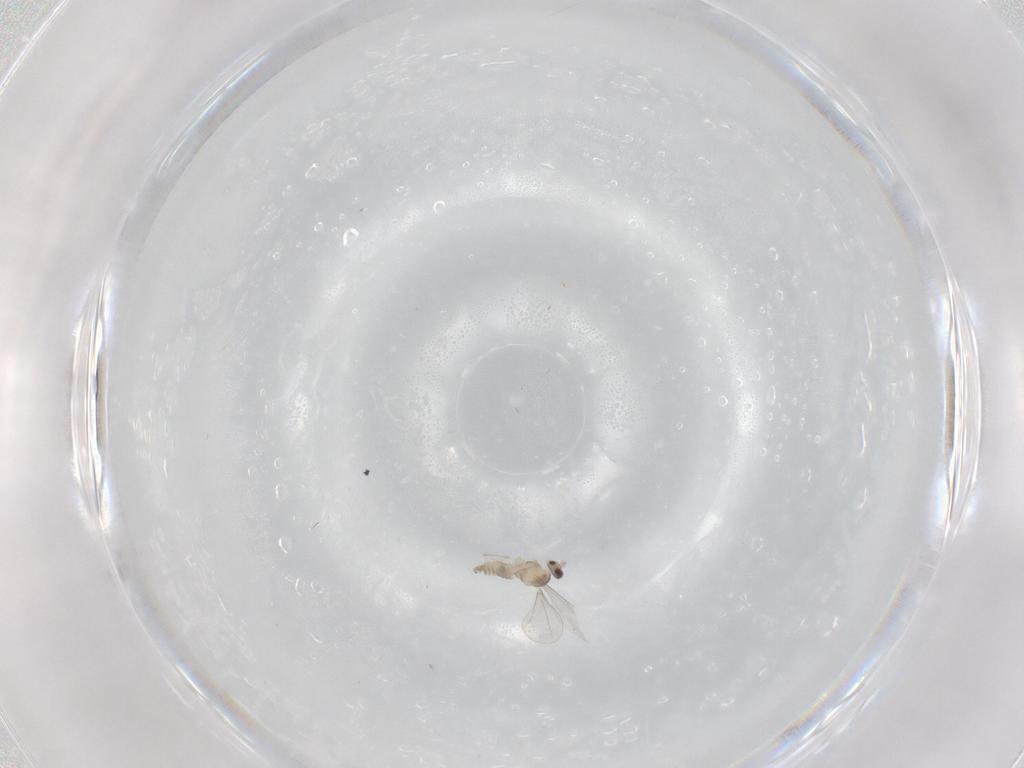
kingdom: Animalia
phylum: Arthropoda
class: Insecta
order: Diptera
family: Cecidomyiidae
